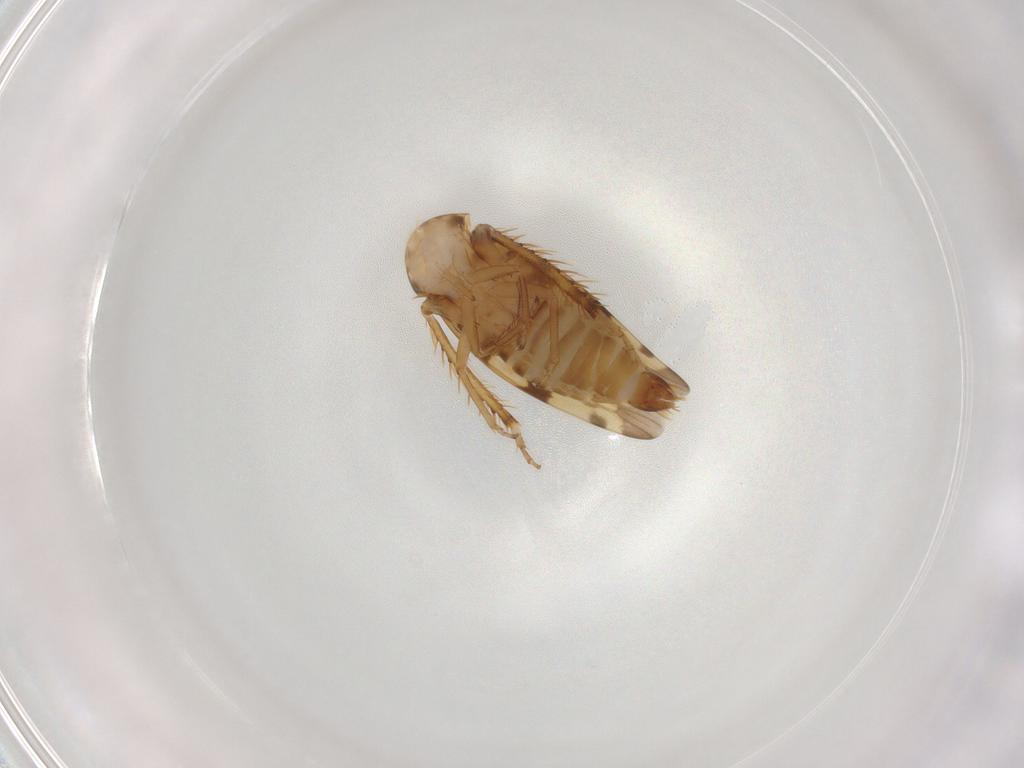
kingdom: Animalia
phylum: Arthropoda
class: Insecta
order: Hemiptera
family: Cicadellidae
